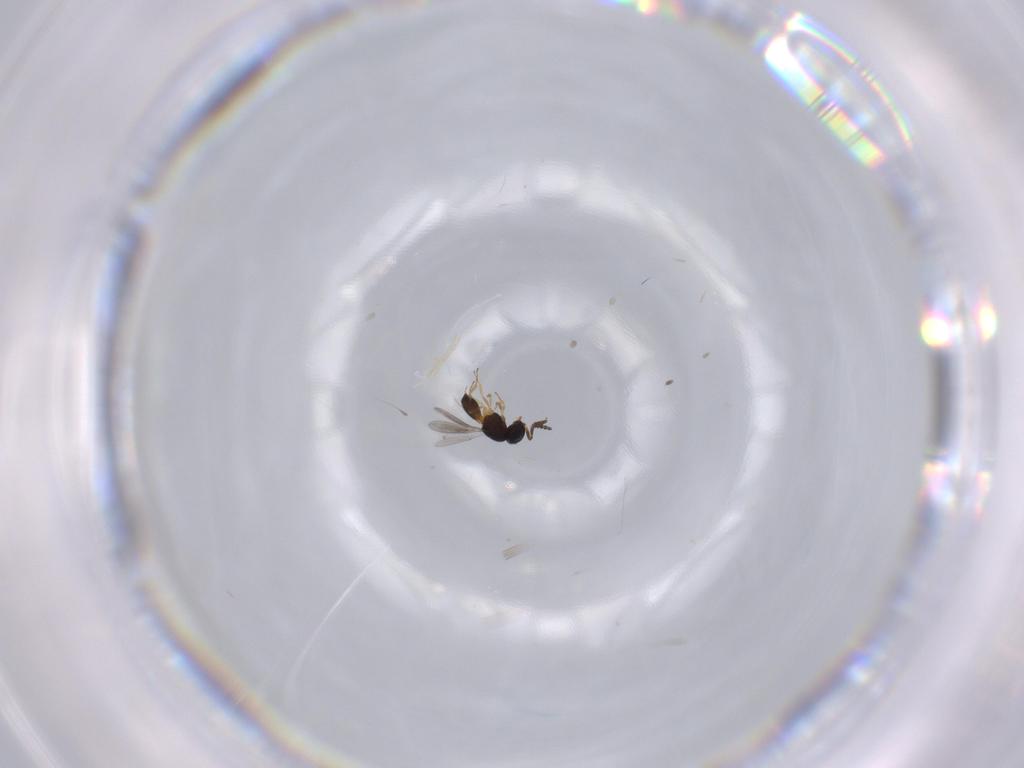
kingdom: Animalia
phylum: Arthropoda
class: Insecta
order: Hymenoptera
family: Scelionidae
